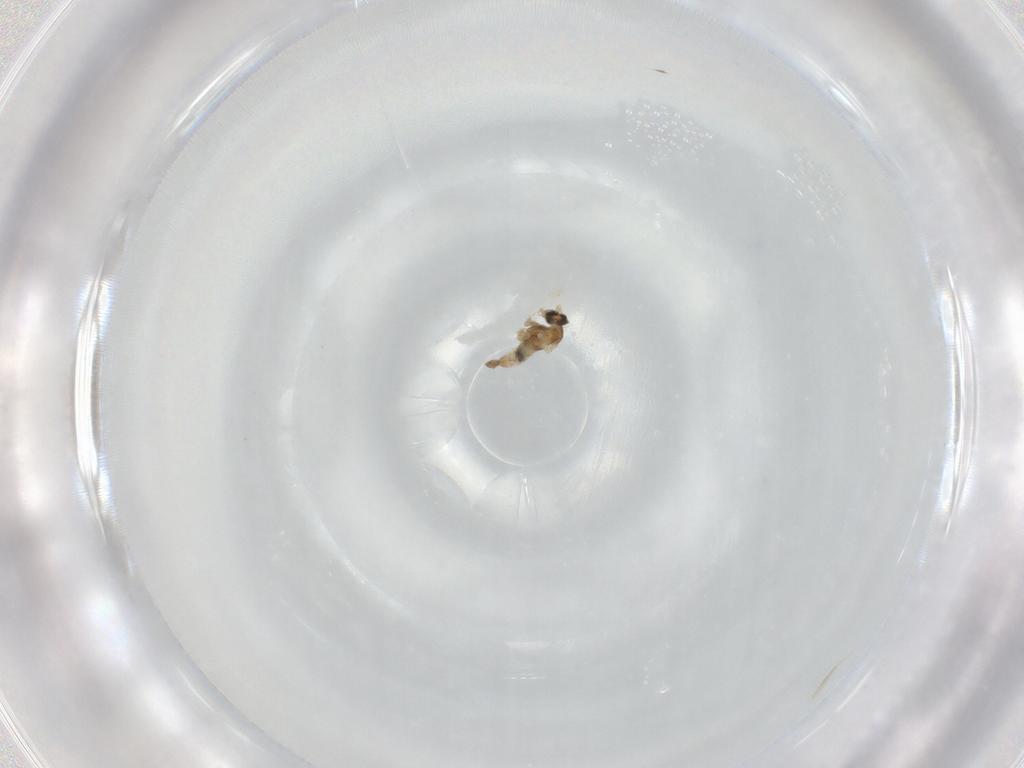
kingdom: Animalia
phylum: Arthropoda
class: Insecta
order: Diptera
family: Cecidomyiidae
